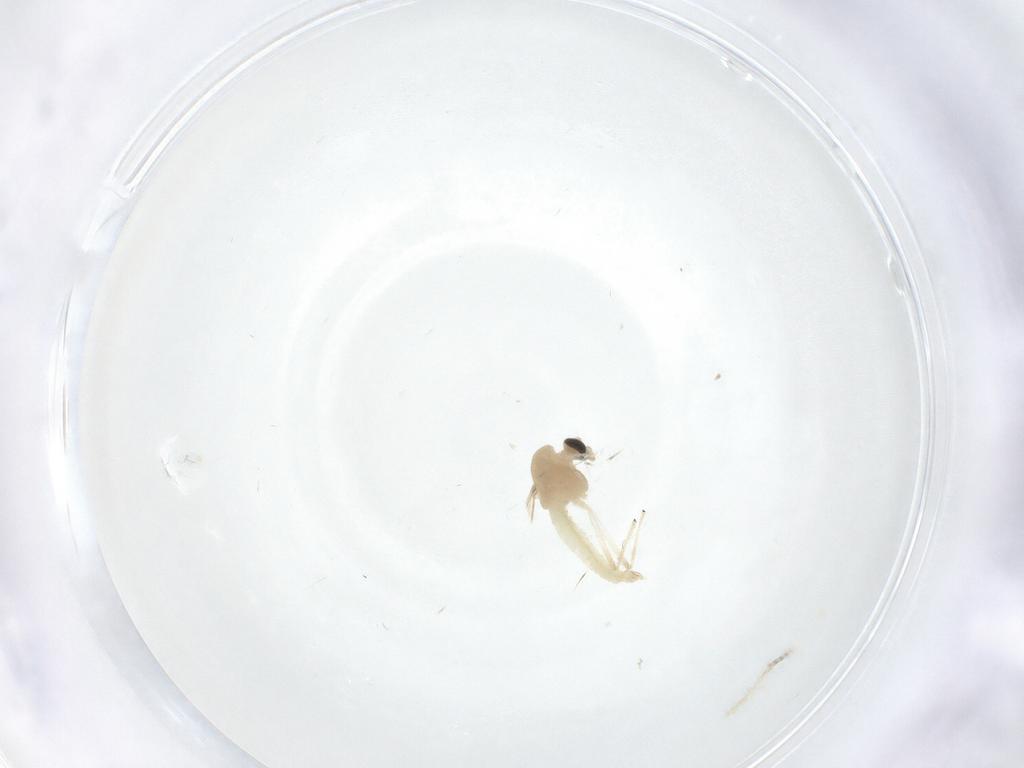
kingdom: Animalia
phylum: Arthropoda
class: Insecta
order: Diptera
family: Chironomidae
